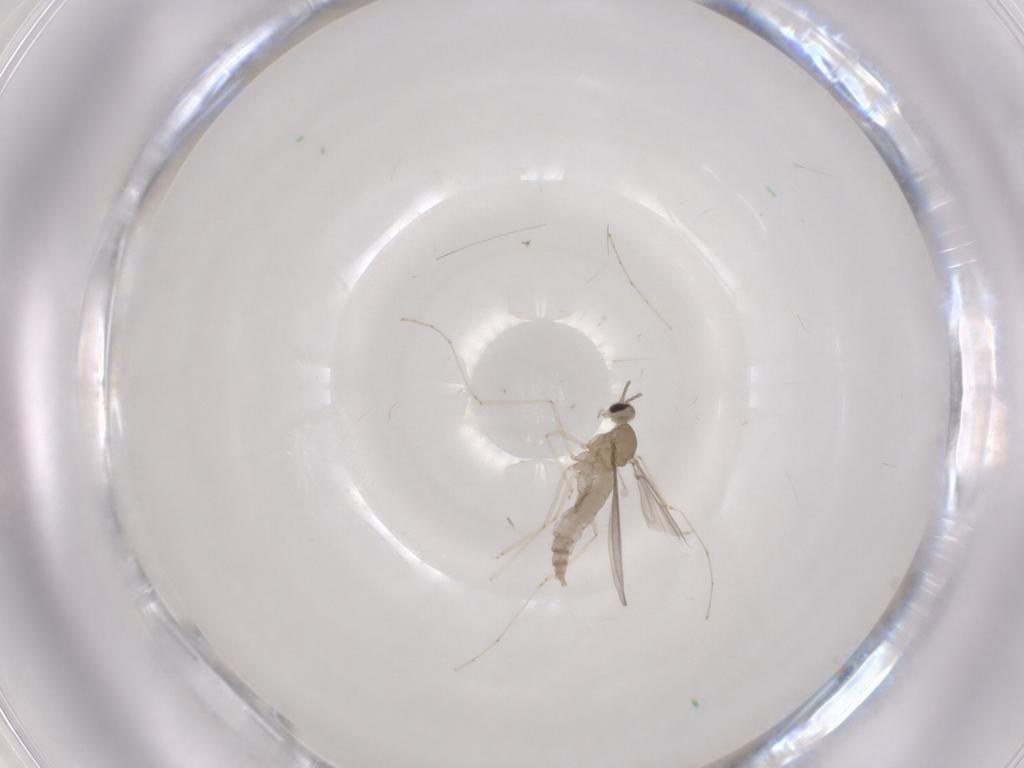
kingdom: Animalia
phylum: Arthropoda
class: Insecta
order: Diptera
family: Cecidomyiidae
